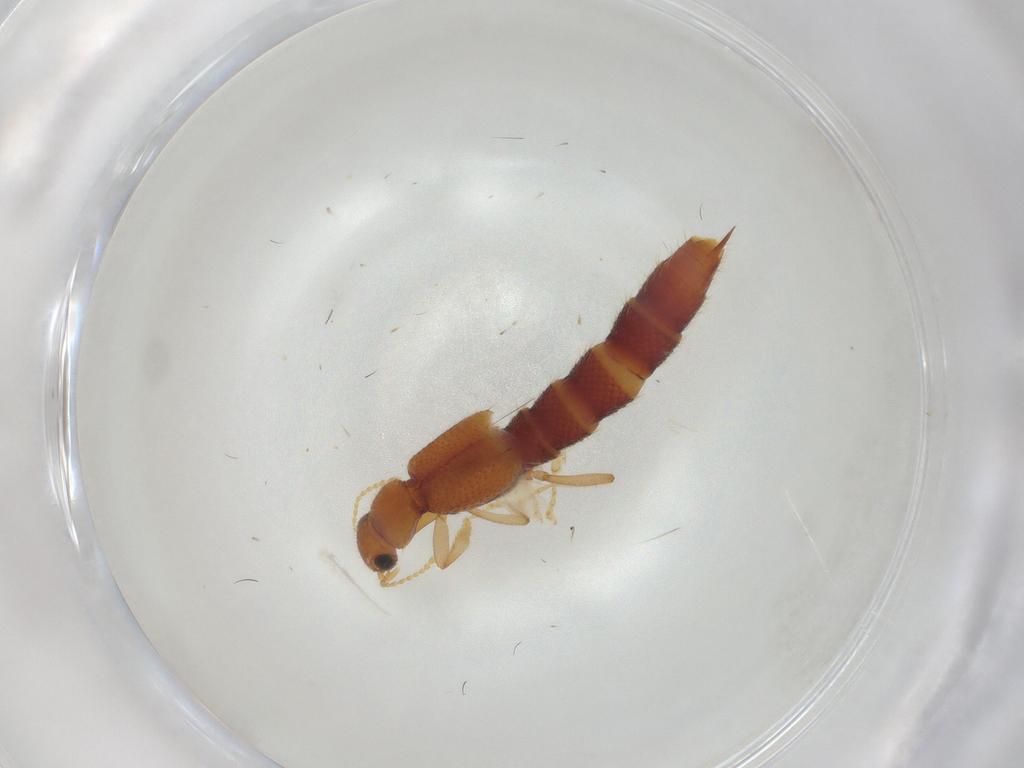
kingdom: Animalia
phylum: Arthropoda
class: Insecta
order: Coleoptera
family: Staphylinidae
